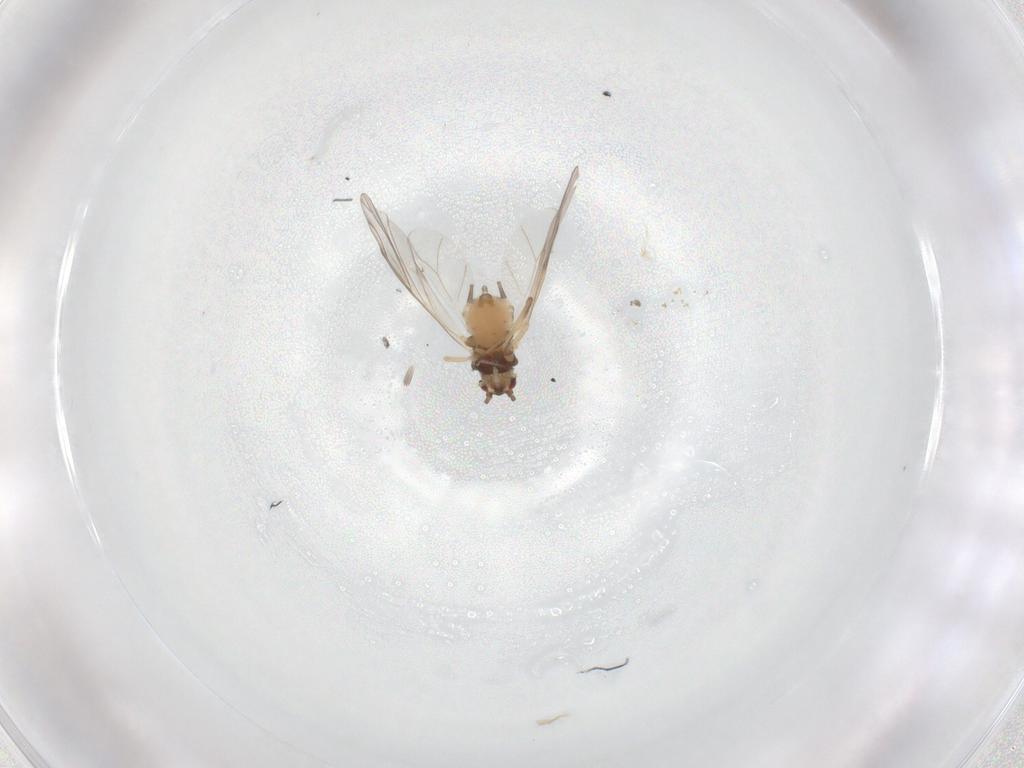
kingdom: Animalia
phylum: Arthropoda
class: Insecta
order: Hemiptera
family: Aphididae
